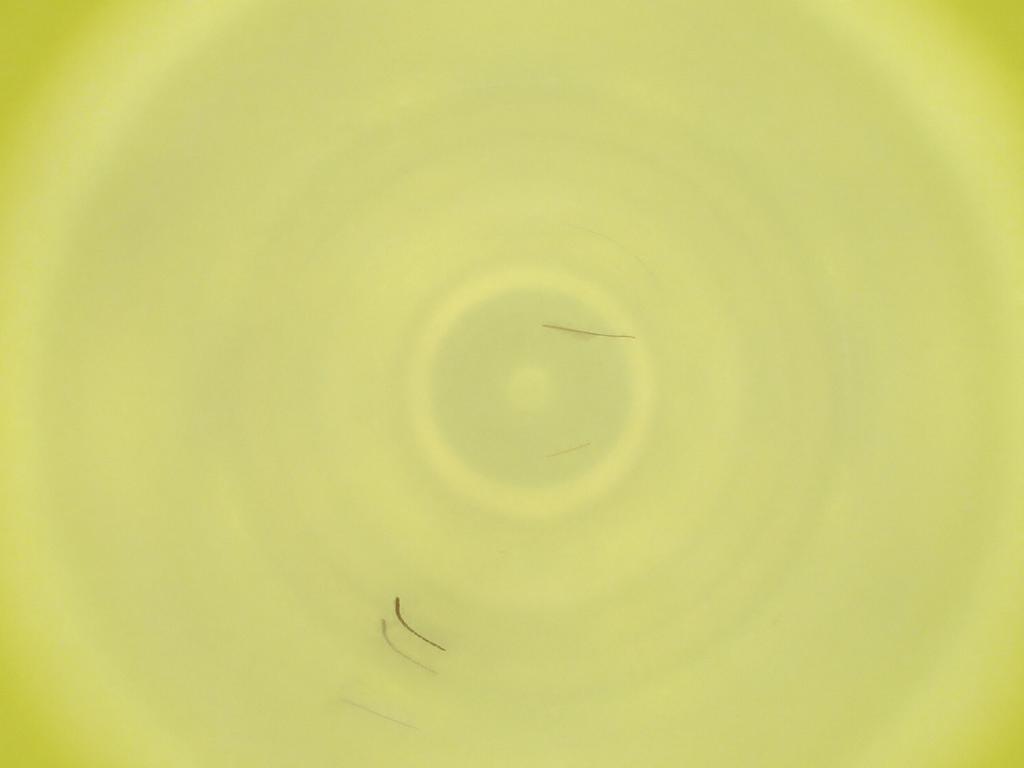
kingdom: Animalia
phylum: Arthropoda
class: Insecta
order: Diptera
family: Cecidomyiidae
